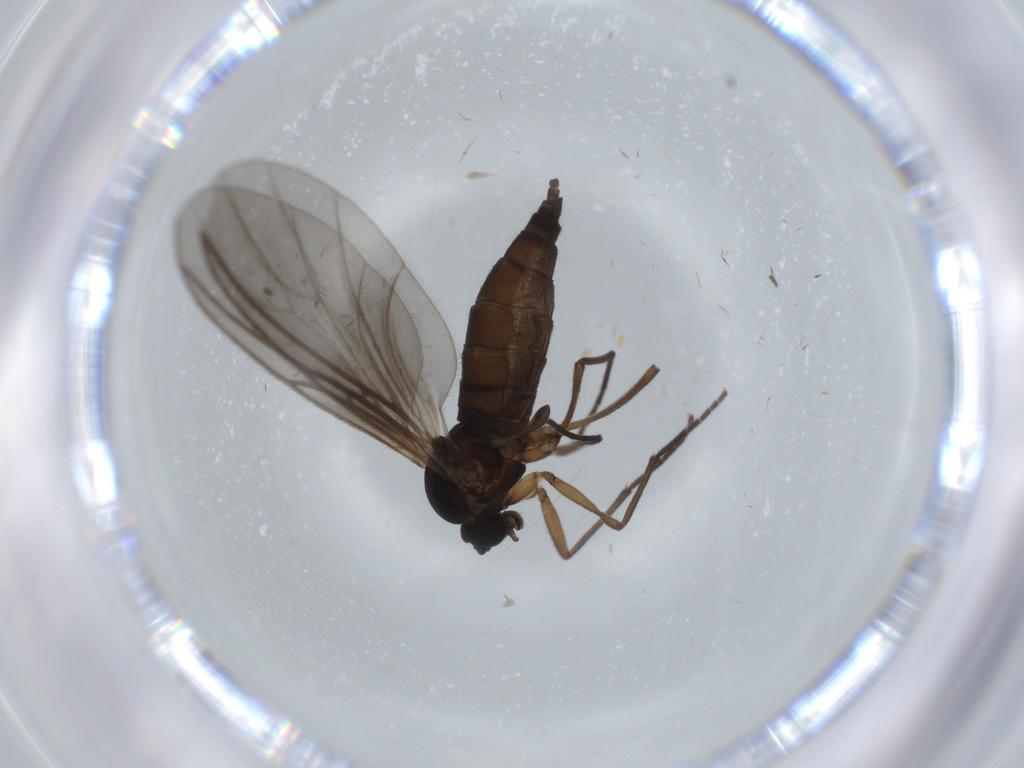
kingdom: Animalia
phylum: Arthropoda
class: Insecta
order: Diptera
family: Sciaridae
